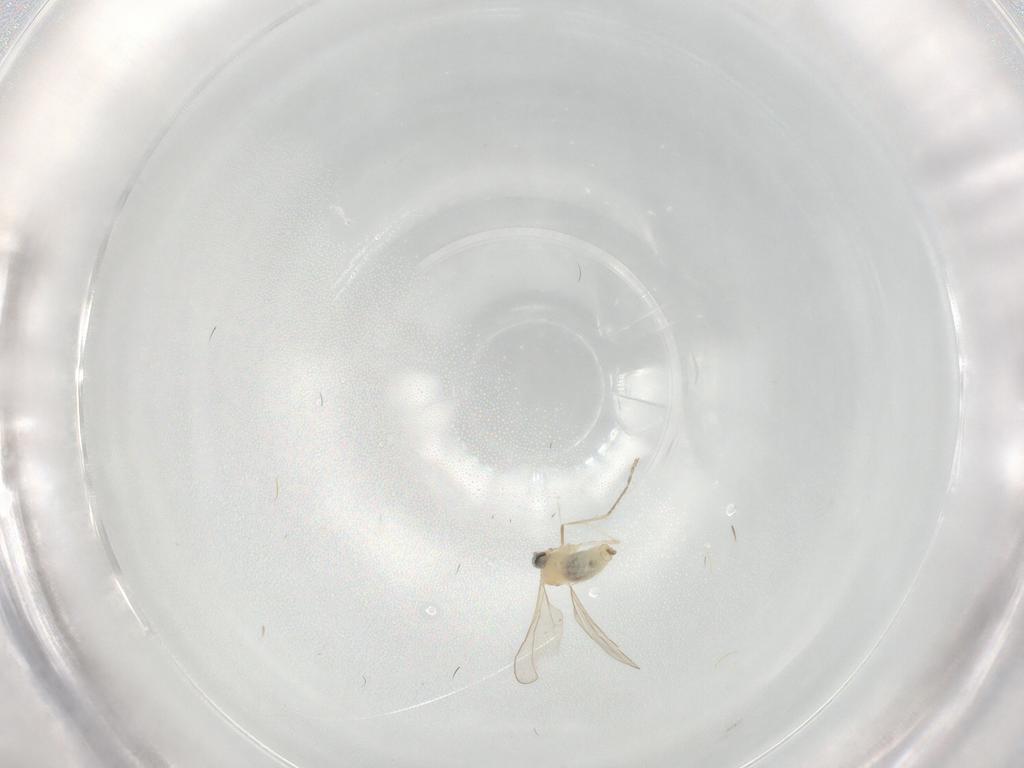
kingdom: Animalia
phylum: Arthropoda
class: Insecta
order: Diptera
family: Cecidomyiidae
